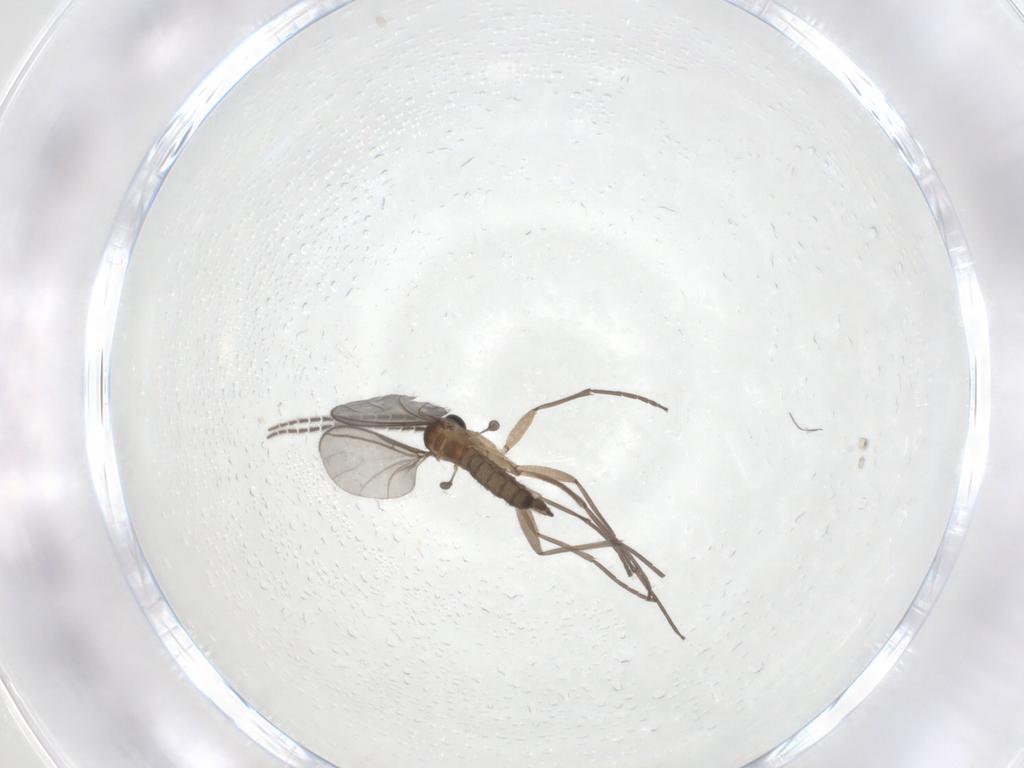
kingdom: Animalia
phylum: Arthropoda
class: Insecta
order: Diptera
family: Sciaridae
